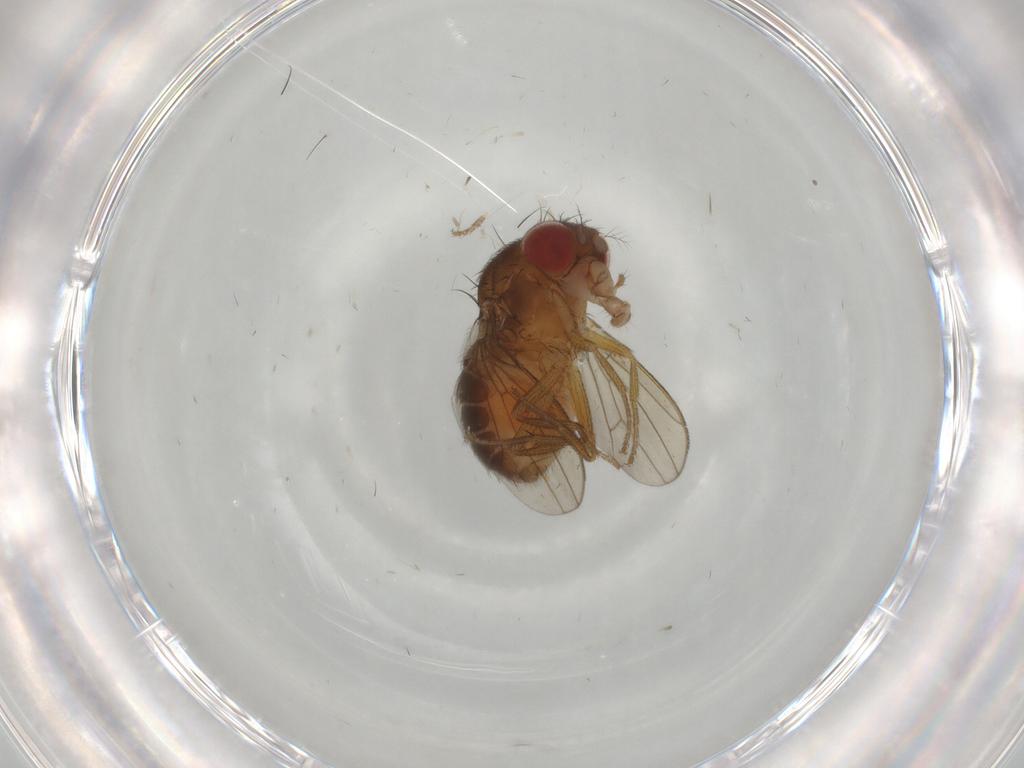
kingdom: Animalia
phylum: Arthropoda
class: Insecta
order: Diptera
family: Drosophilidae
